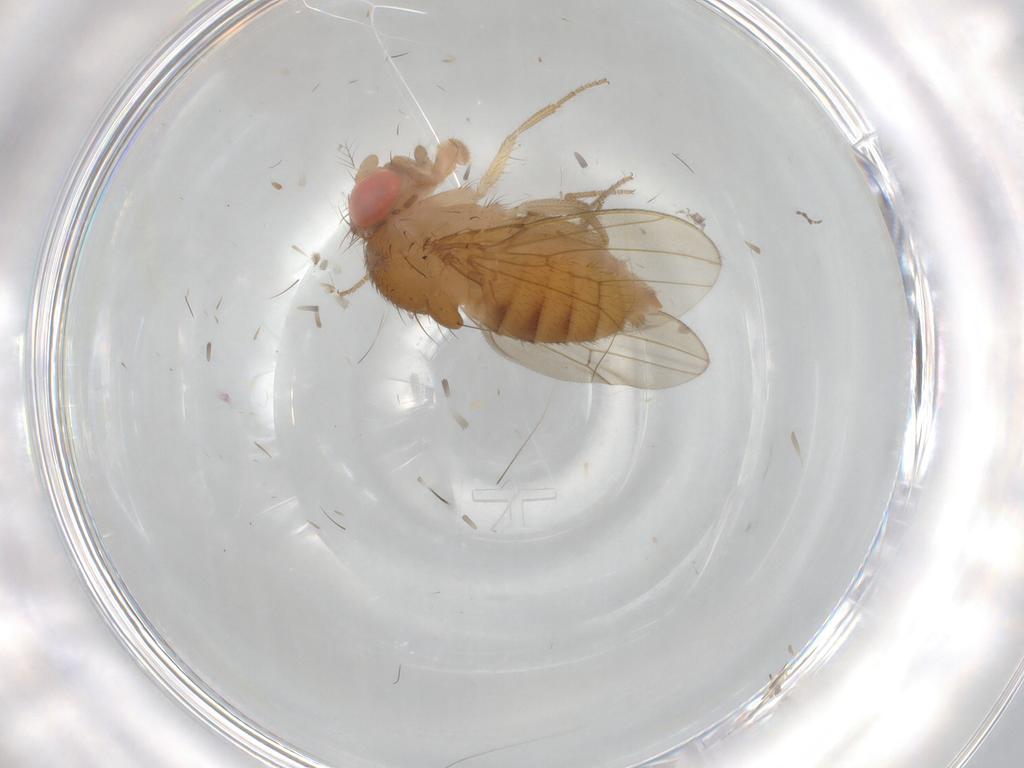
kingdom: Animalia
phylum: Arthropoda
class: Insecta
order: Diptera
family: Drosophilidae
